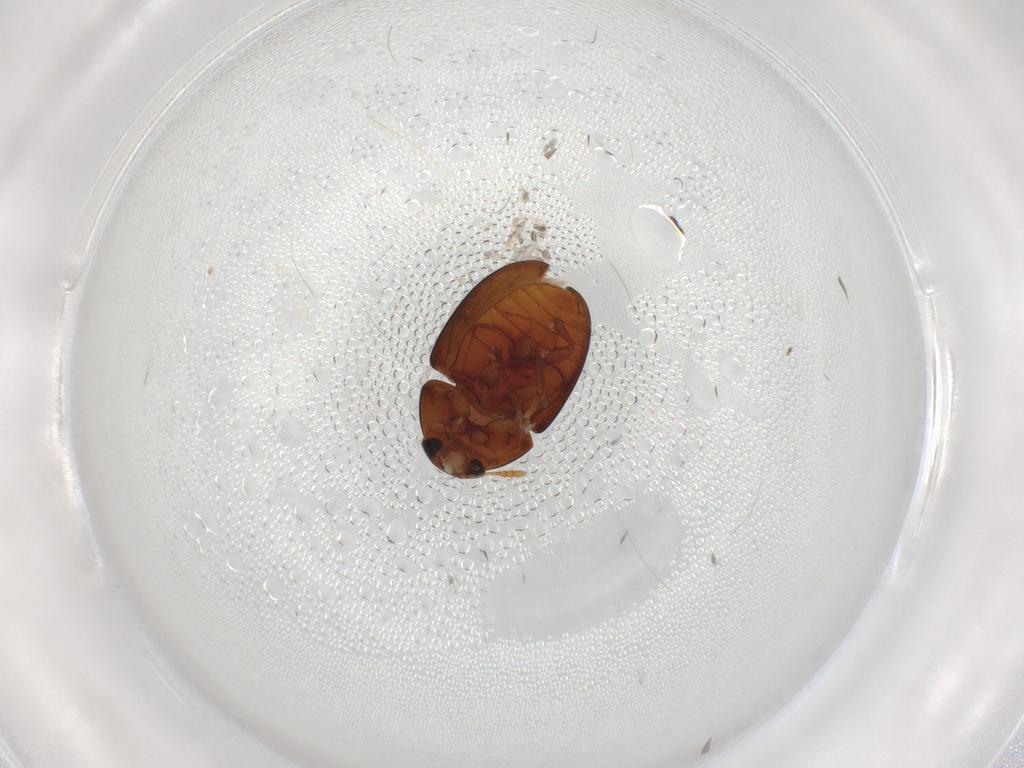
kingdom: Animalia
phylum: Arthropoda
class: Insecta
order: Coleoptera
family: Phalacridae
